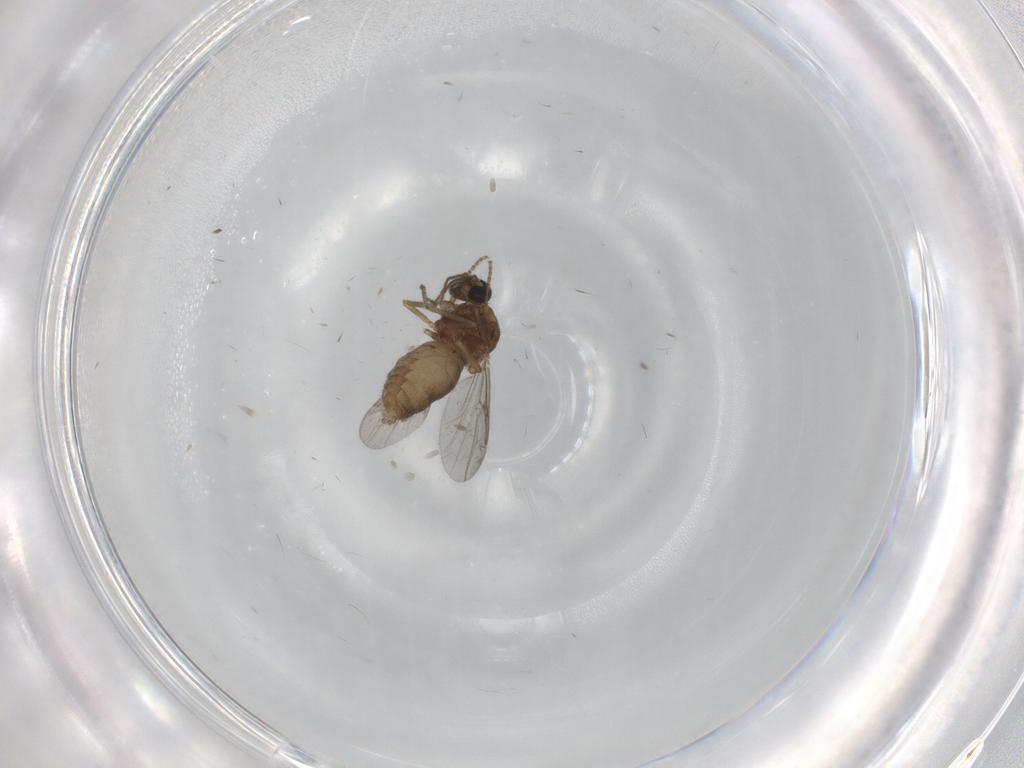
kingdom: Animalia
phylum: Arthropoda
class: Insecta
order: Diptera
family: Ceratopogonidae
